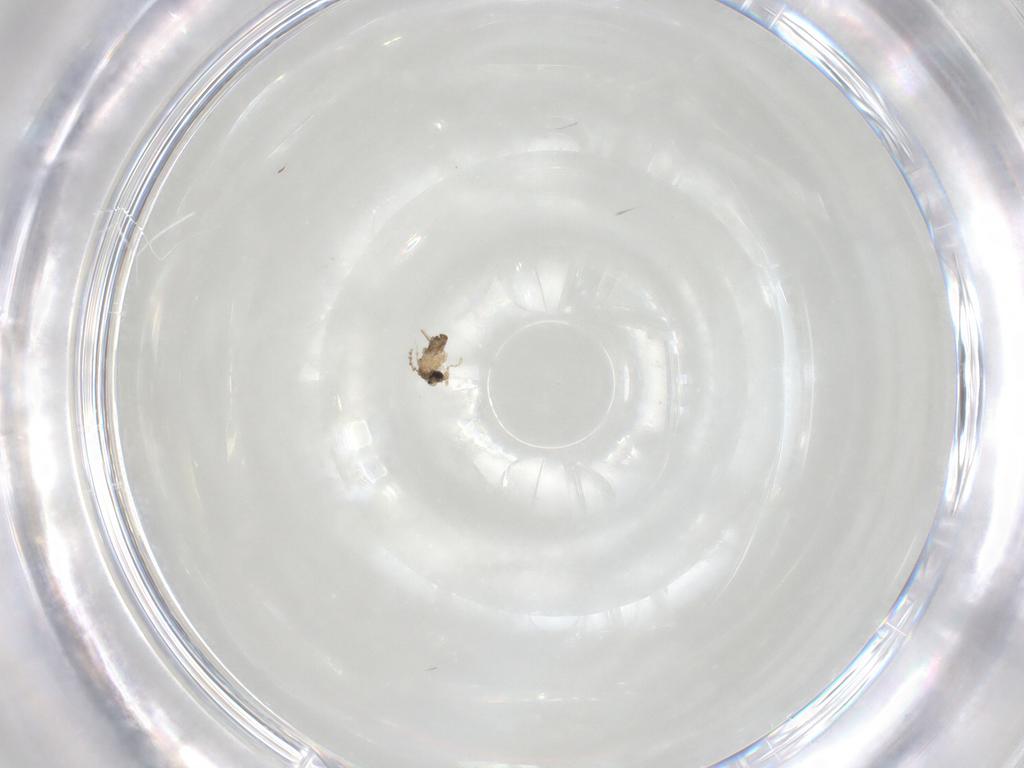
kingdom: Animalia
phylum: Arthropoda
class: Insecta
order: Diptera
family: Cecidomyiidae
